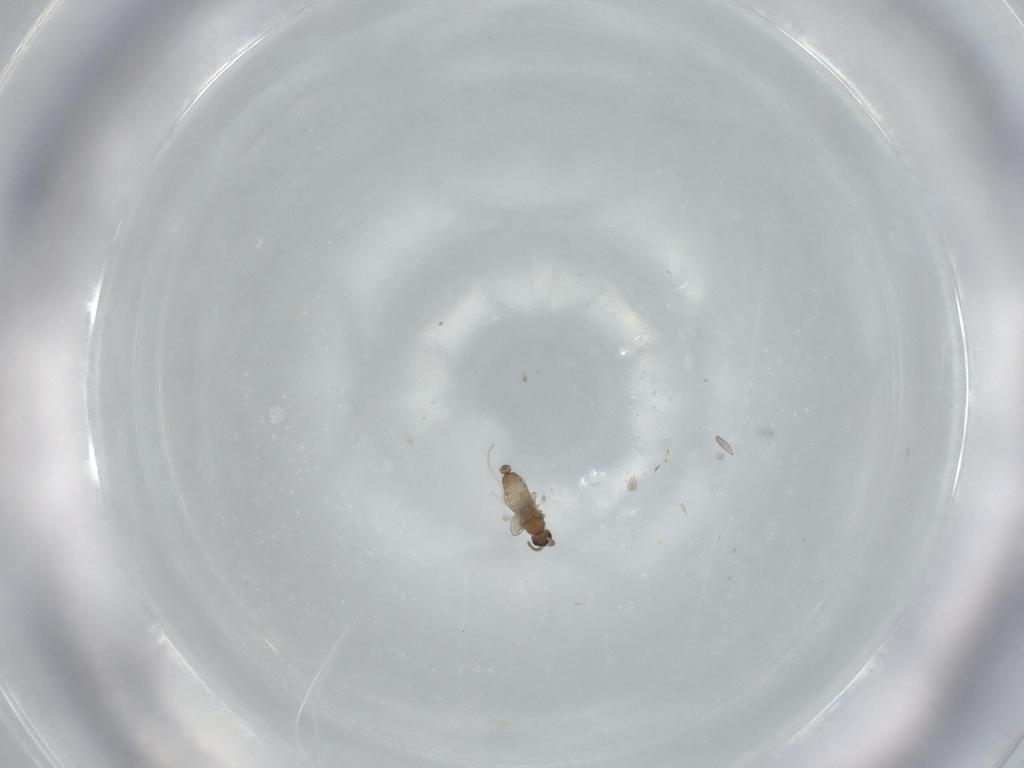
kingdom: Animalia
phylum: Arthropoda
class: Insecta
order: Diptera
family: Cecidomyiidae
